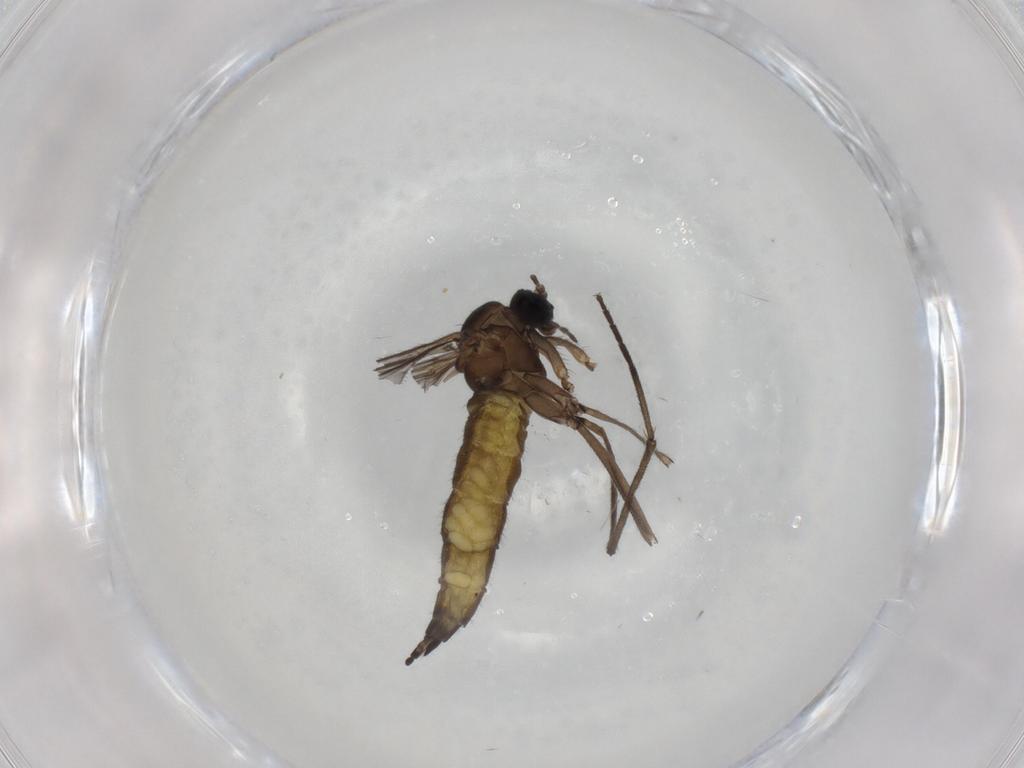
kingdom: Animalia
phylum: Arthropoda
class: Insecta
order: Diptera
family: Sciaridae
